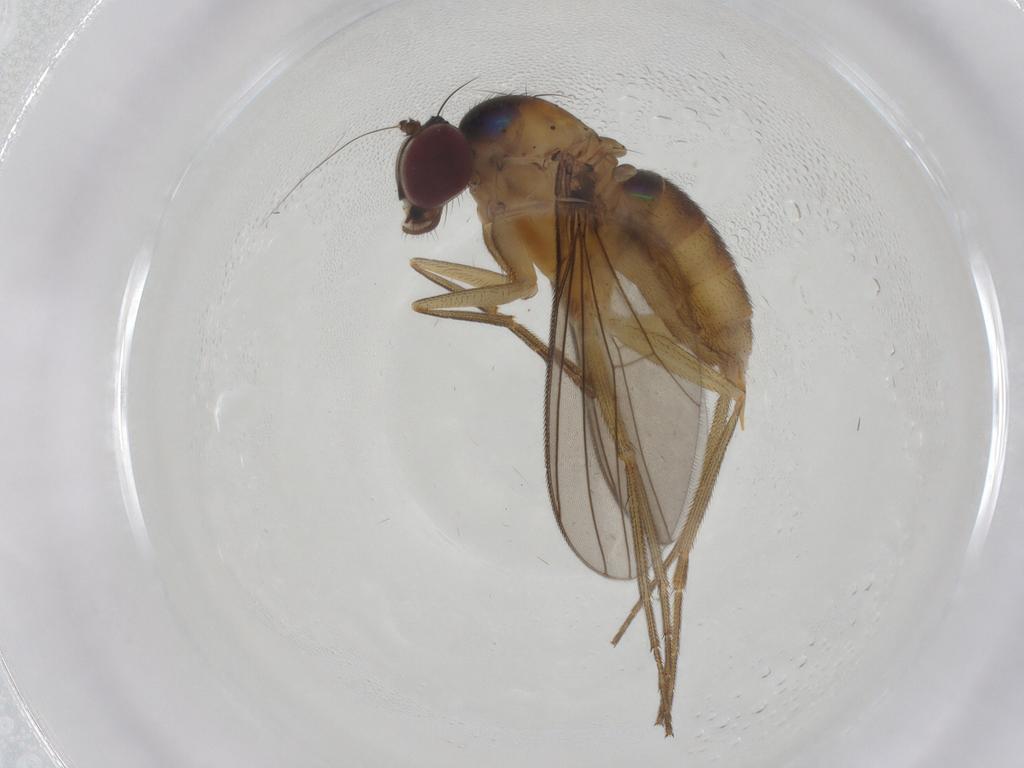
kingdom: Animalia
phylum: Arthropoda
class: Insecta
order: Diptera
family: Dolichopodidae
